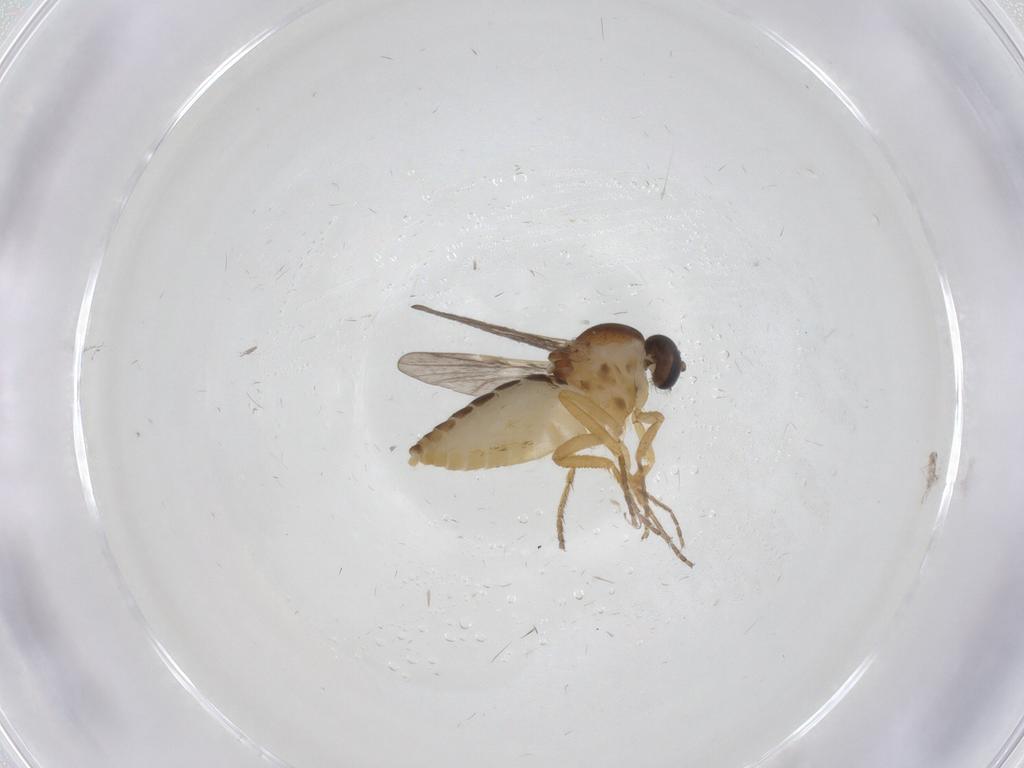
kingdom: Animalia
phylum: Arthropoda
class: Insecta
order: Diptera
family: Ceratopogonidae
